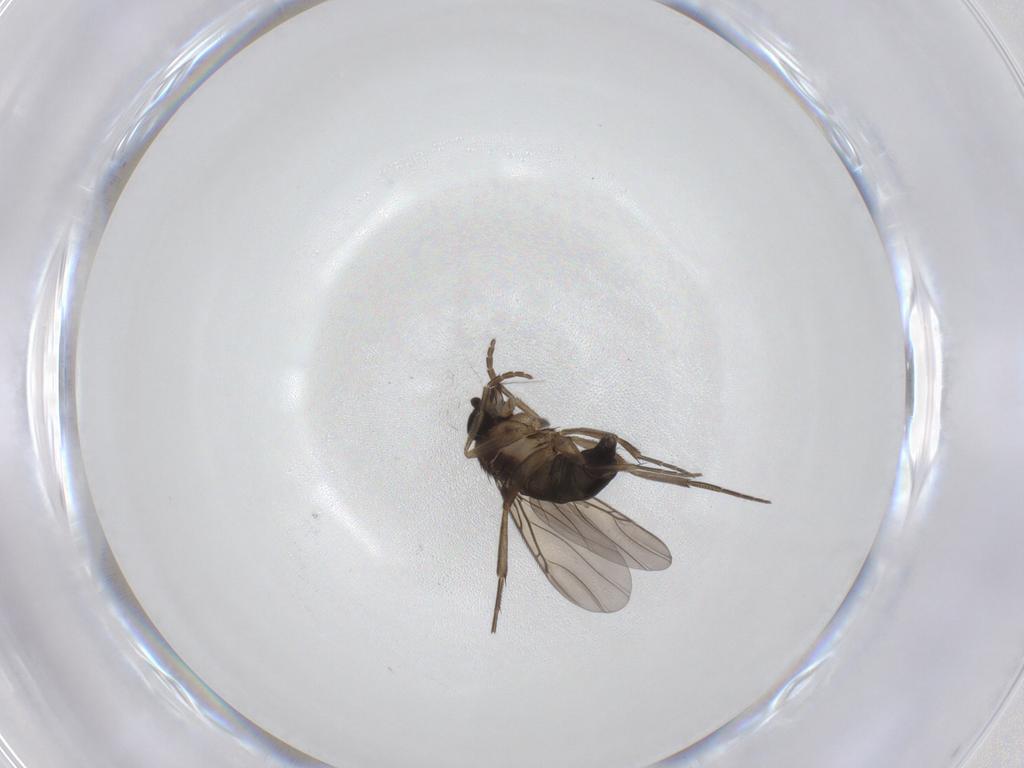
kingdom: Animalia
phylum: Arthropoda
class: Insecta
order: Diptera
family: Phoridae
